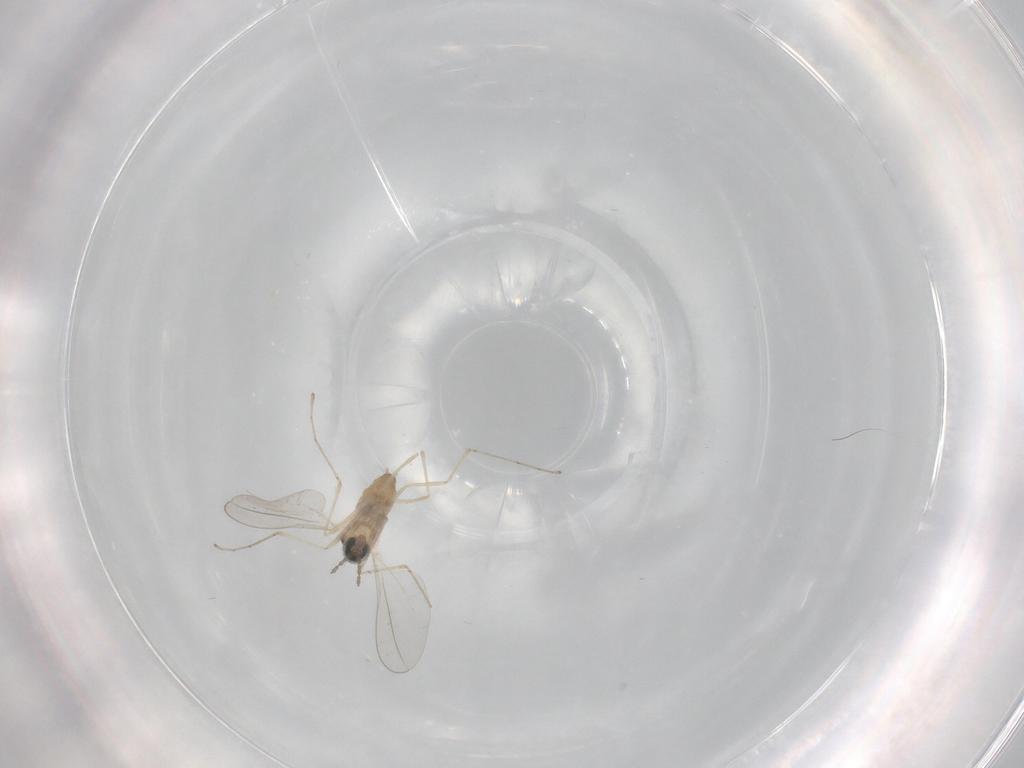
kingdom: Animalia
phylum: Arthropoda
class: Insecta
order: Diptera
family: Cecidomyiidae
